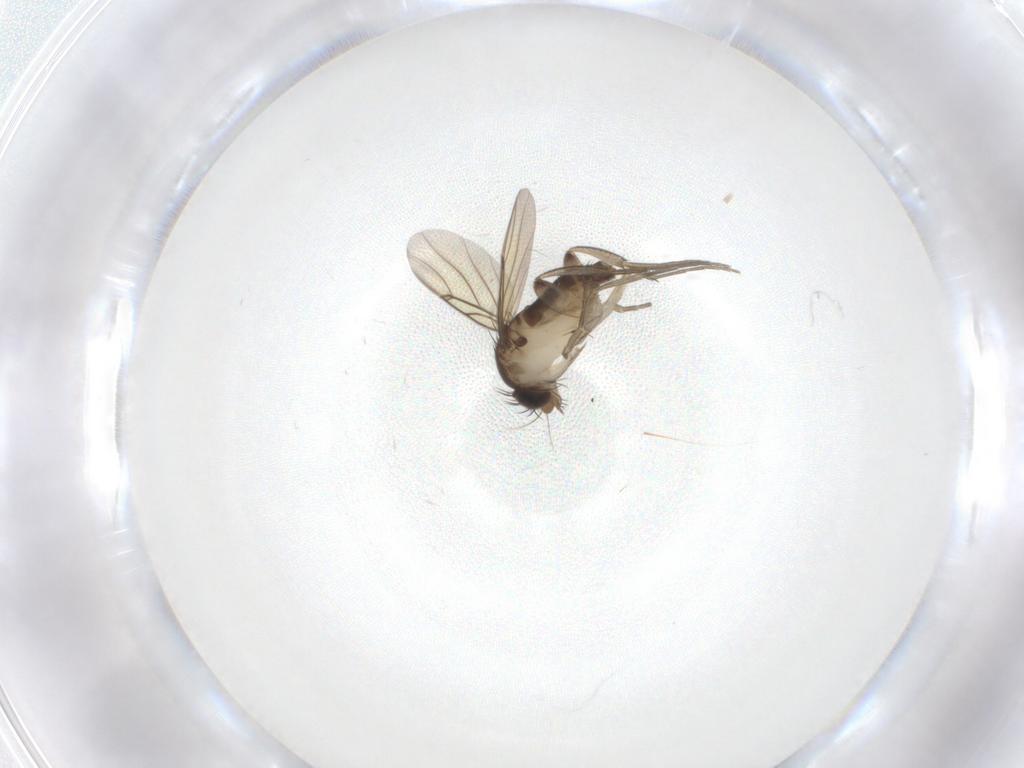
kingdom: Animalia
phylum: Arthropoda
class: Insecta
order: Diptera
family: Phoridae
